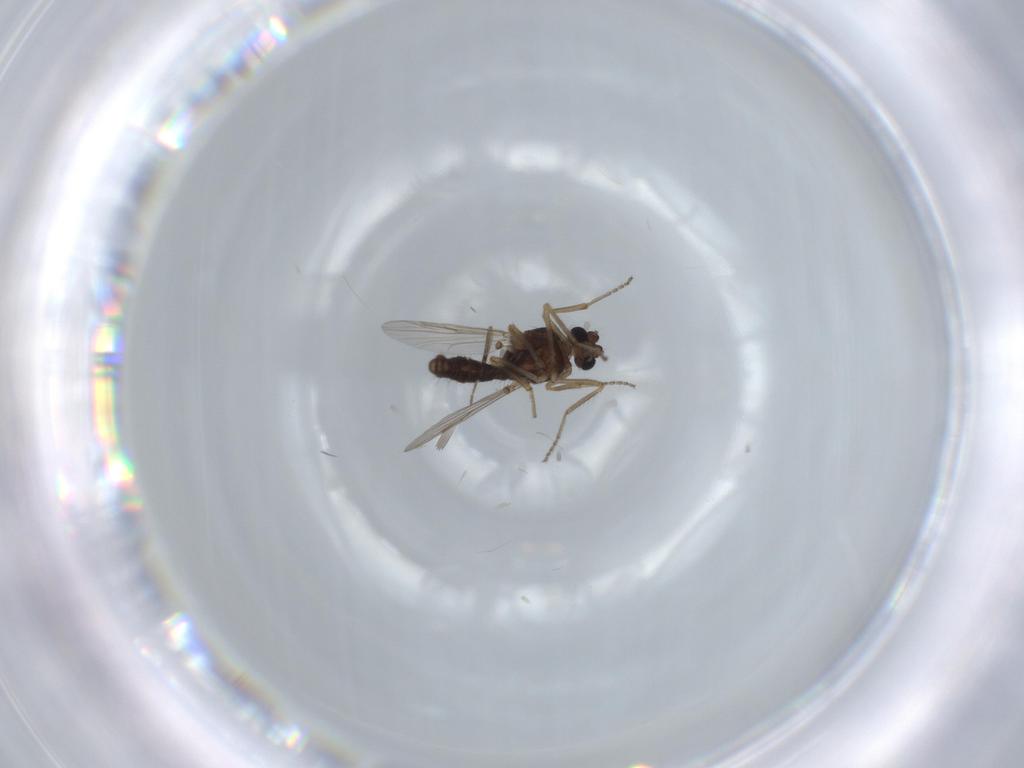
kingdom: Animalia
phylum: Arthropoda
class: Insecta
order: Diptera
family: Ceratopogonidae
